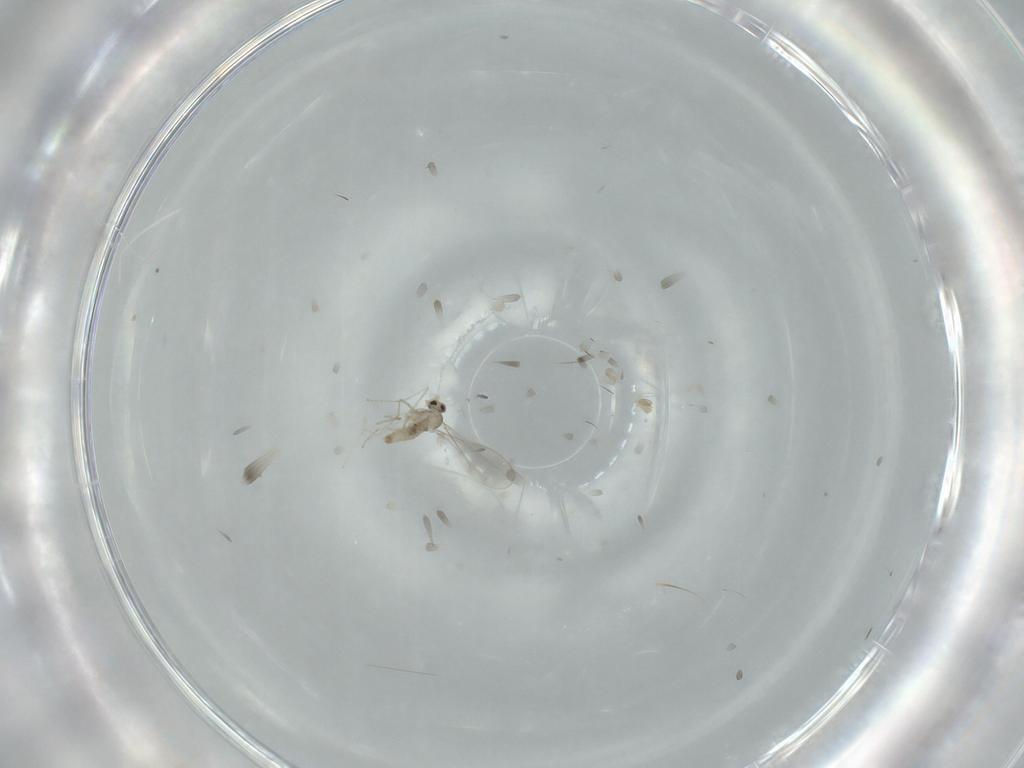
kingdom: Animalia
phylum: Arthropoda
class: Insecta
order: Diptera
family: Cecidomyiidae
